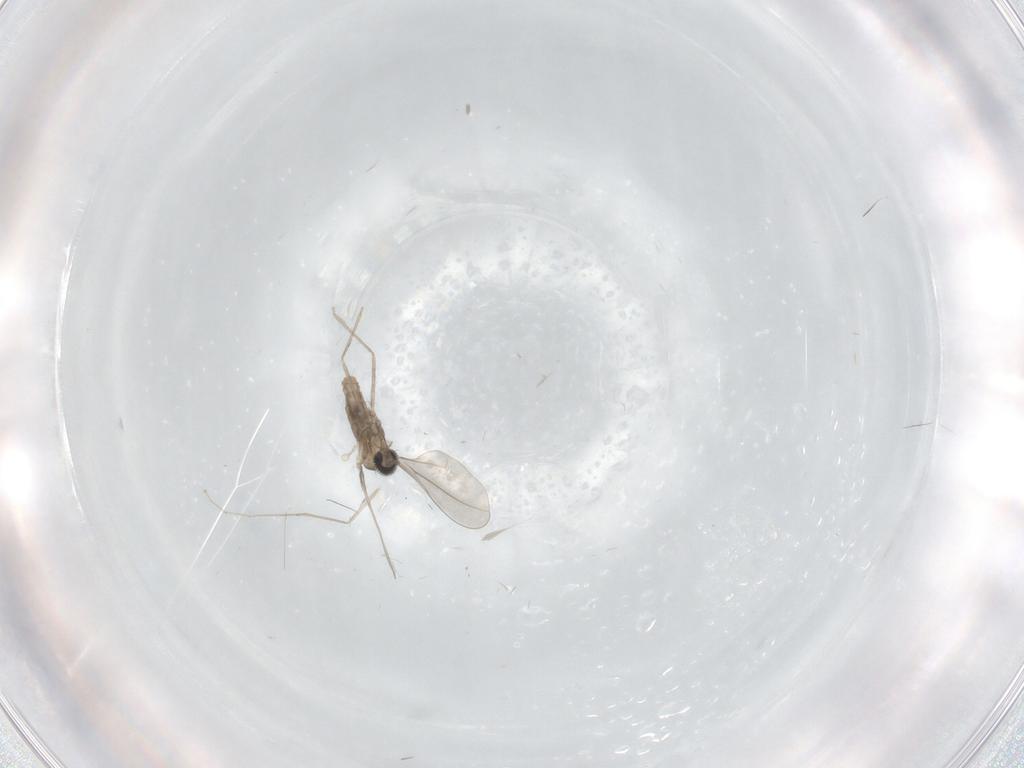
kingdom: Animalia
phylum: Arthropoda
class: Insecta
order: Diptera
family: Cecidomyiidae
